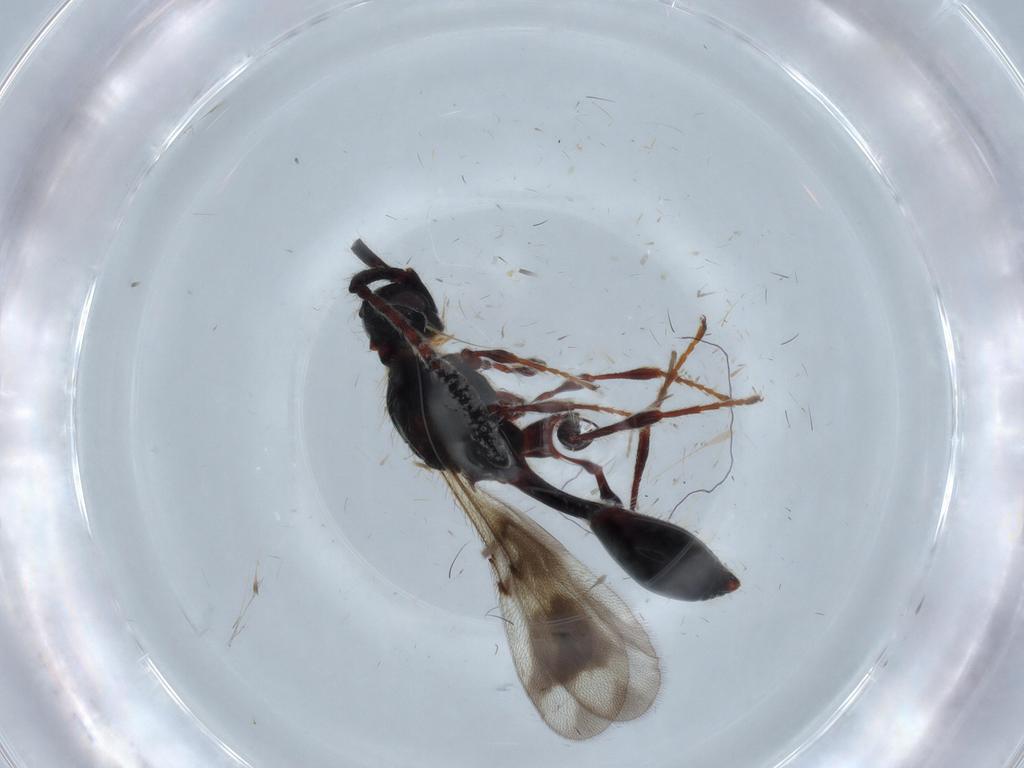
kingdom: Animalia
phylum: Arthropoda
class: Insecta
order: Hymenoptera
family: Diapriidae
